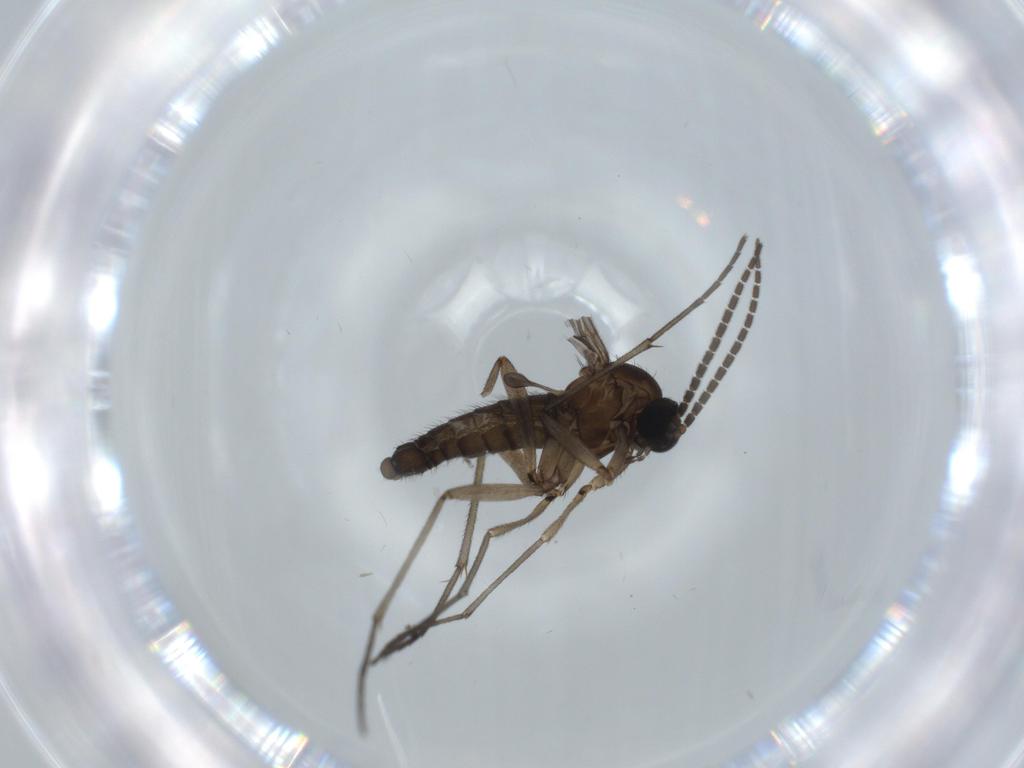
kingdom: Animalia
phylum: Arthropoda
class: Insecta
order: Diptera
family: Sciaridae
